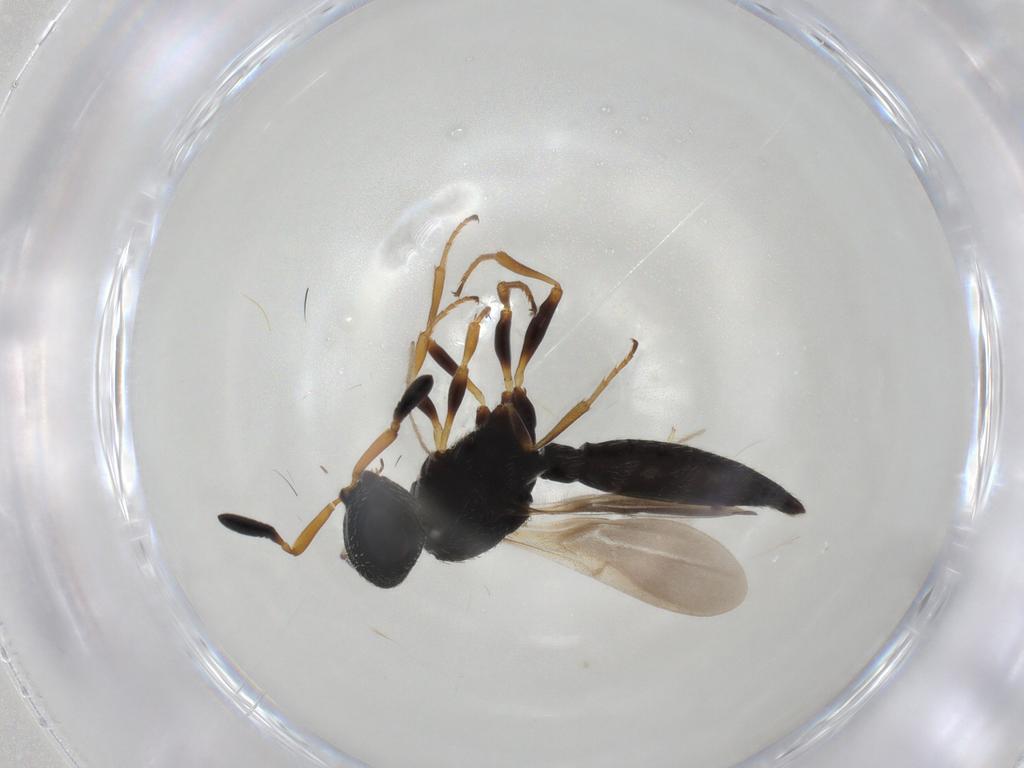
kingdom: Animalia
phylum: Arthropoda
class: Insecta
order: Hymenoptera
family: Scelionidae
